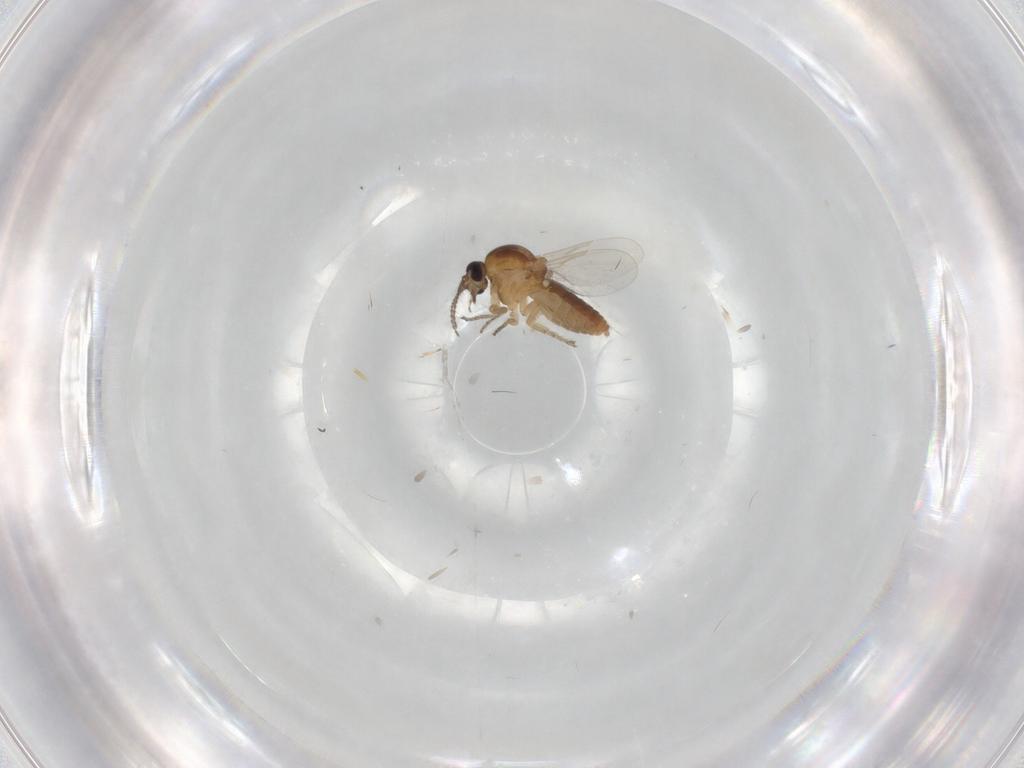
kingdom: Animalia
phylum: Arthropoda
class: Insecta
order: Diptera
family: Ceratopogonidae
